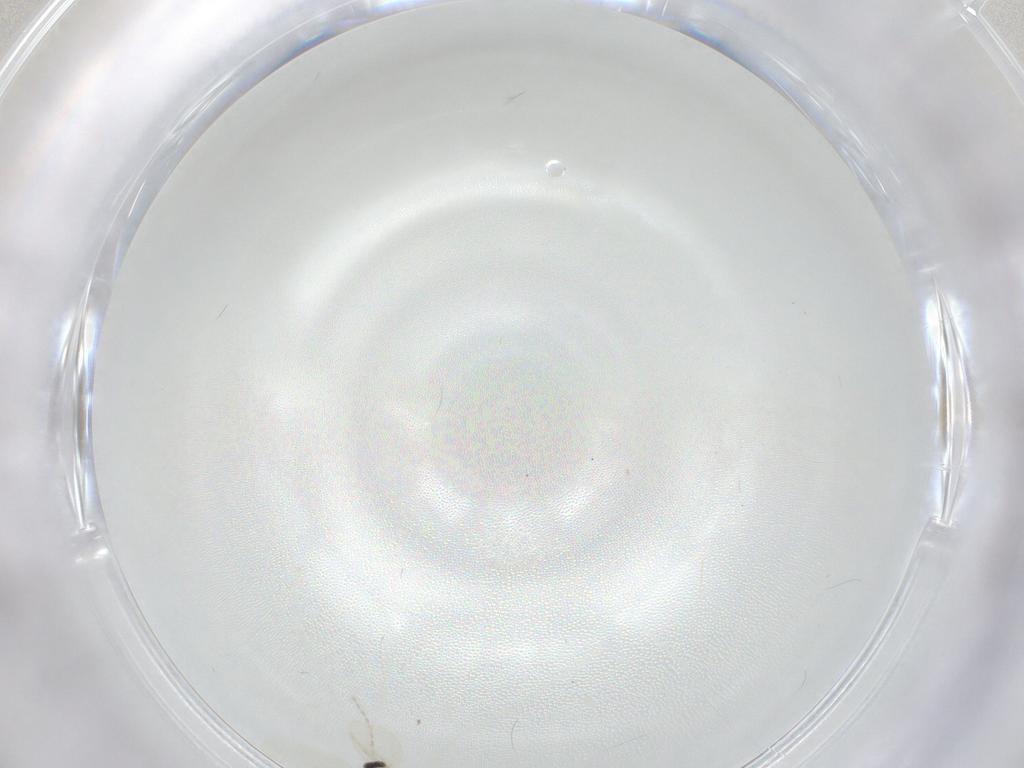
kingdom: Animalia
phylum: Arthropoda
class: Insecta
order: Diptera
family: Cecidomyiidae
